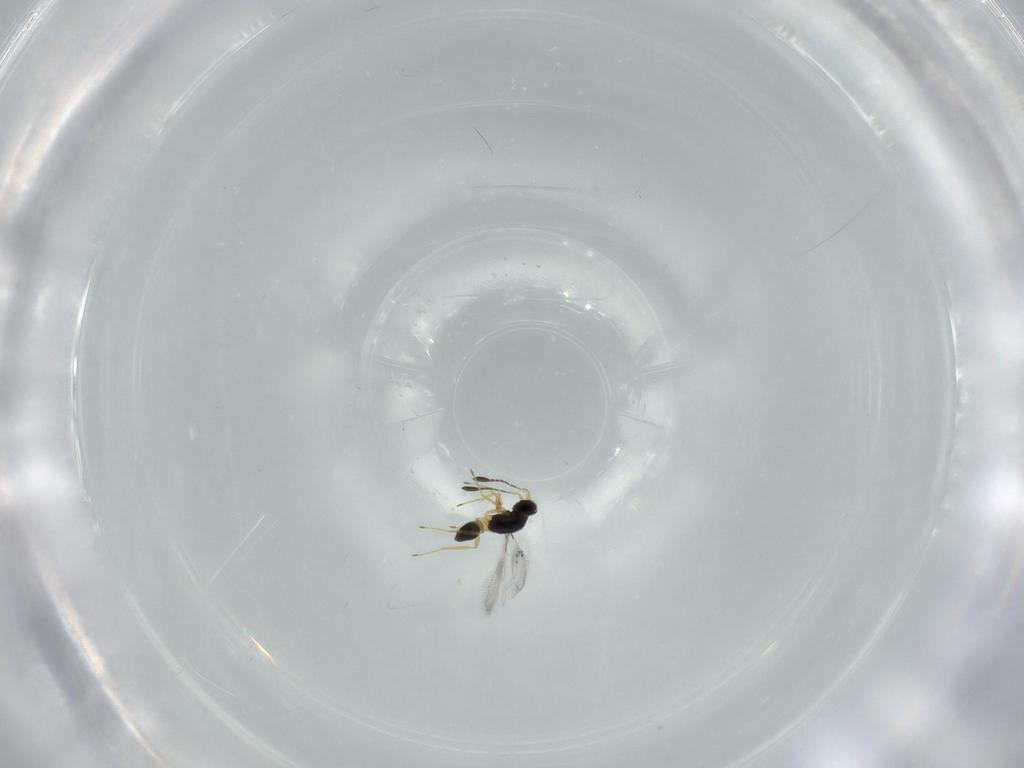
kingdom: Animalia
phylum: Arthropoda
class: Insecta
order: Hymenoptera
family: Mymaridae
